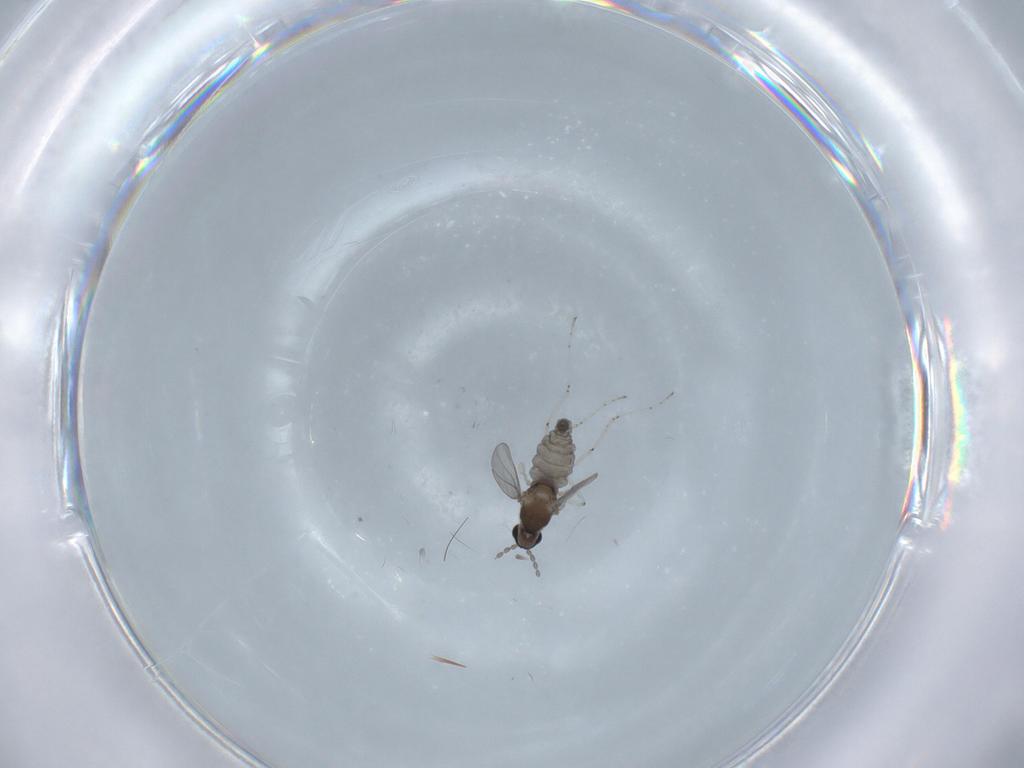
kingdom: Animalia
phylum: Arthropoda
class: Insecta
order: Diptera
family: Cecidomyiidae
